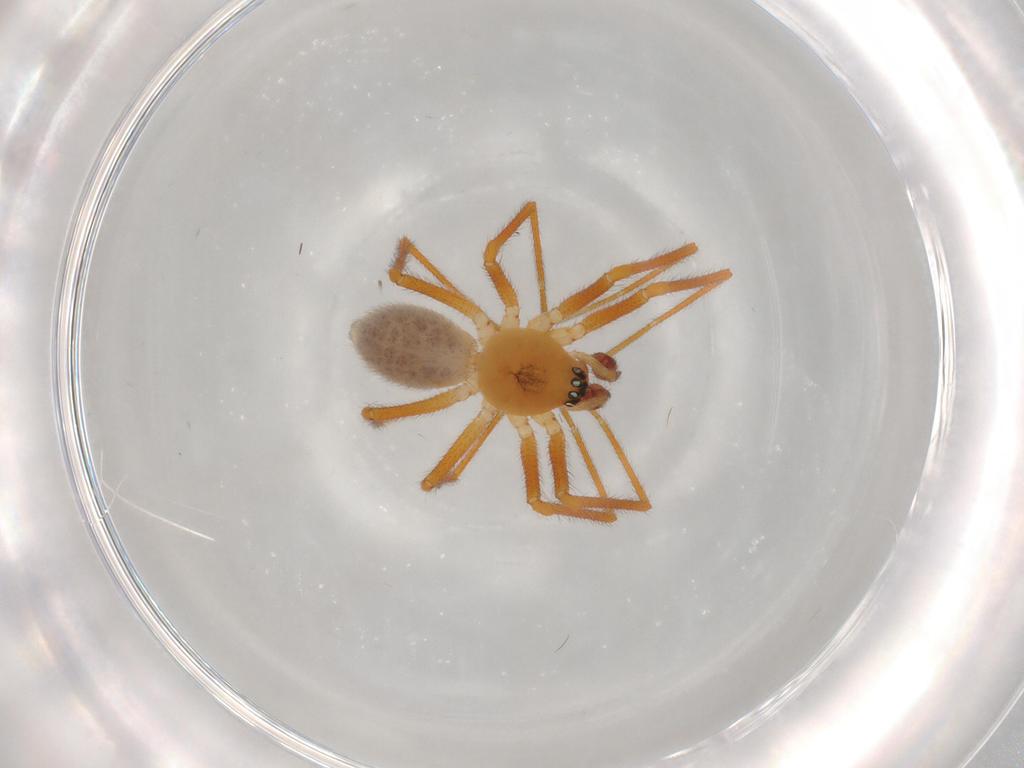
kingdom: Animalia
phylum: Arthropoda
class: Arachnida
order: Araneae
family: Linyphiidae
